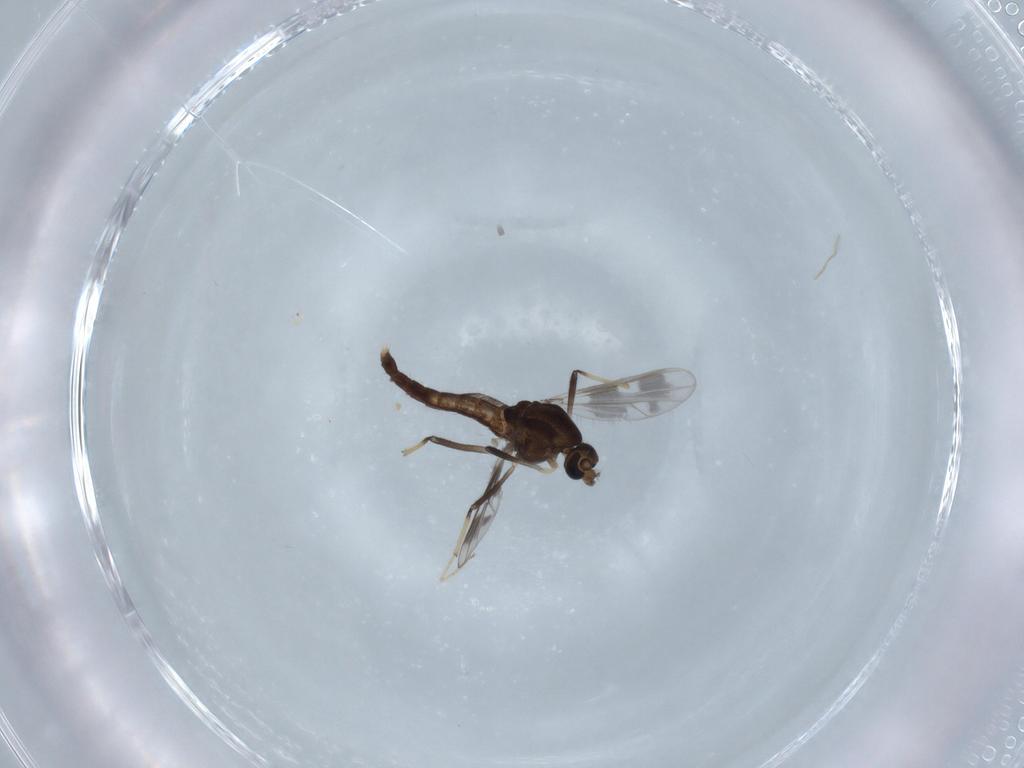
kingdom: Animalia
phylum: Arthropoda
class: Insecta
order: Diptera
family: Chironomidae
